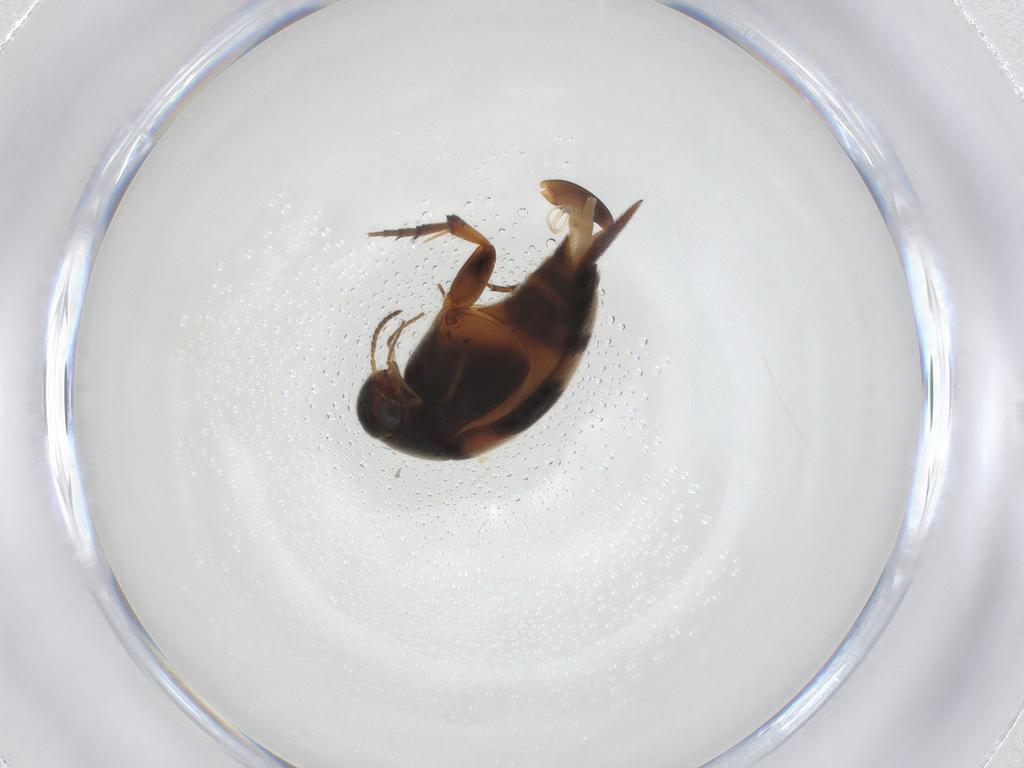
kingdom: Animalia
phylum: Arthropoda
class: Insecta
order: Coleoptera
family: Mordellidae
